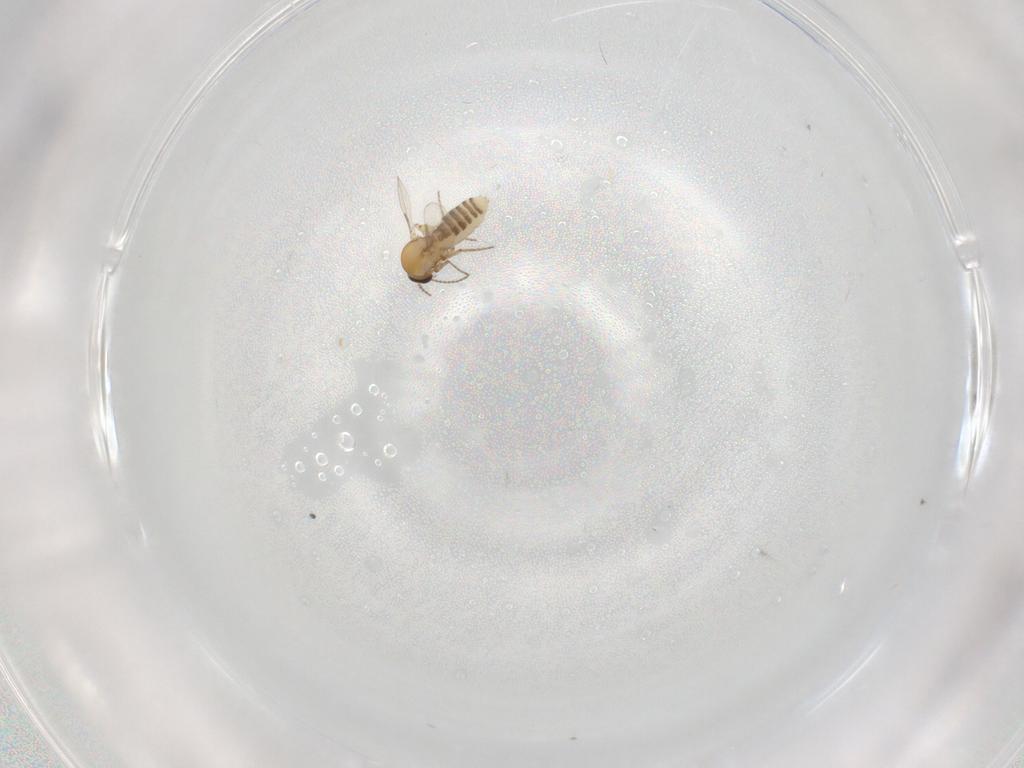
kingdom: Animalia
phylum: Arthropoda
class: Insecta
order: Diptera
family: Ceratopogonidae
